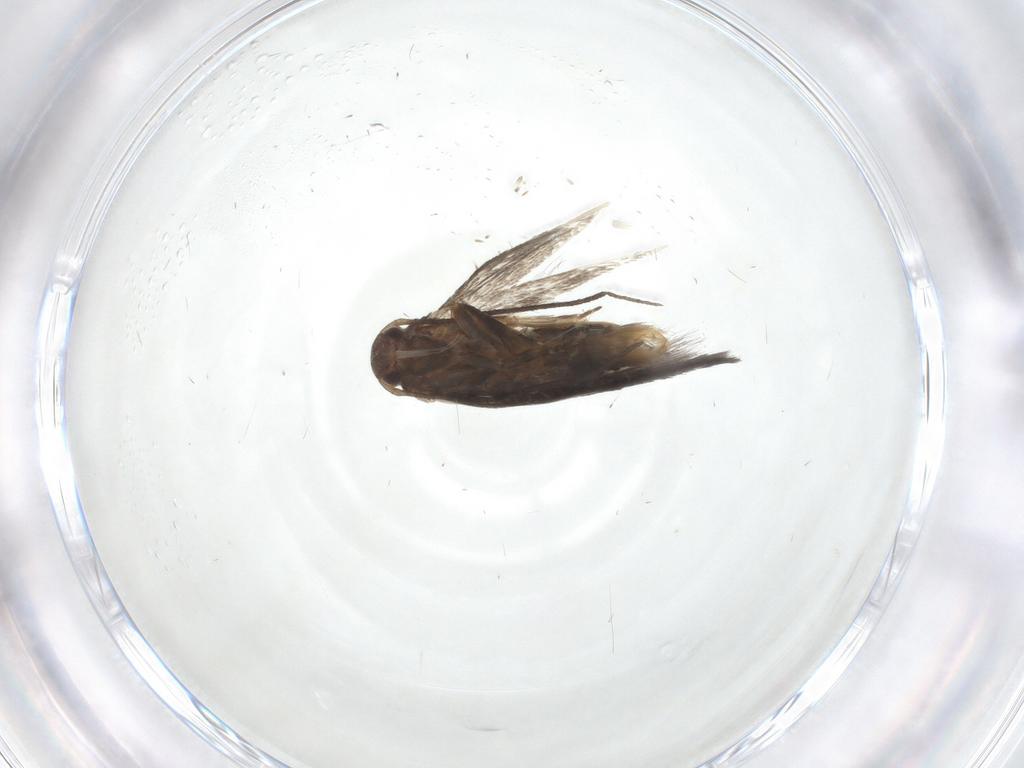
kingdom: Animalia
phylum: Arthropoda
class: Insecta
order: Lepidoptera
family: Elachistidae
